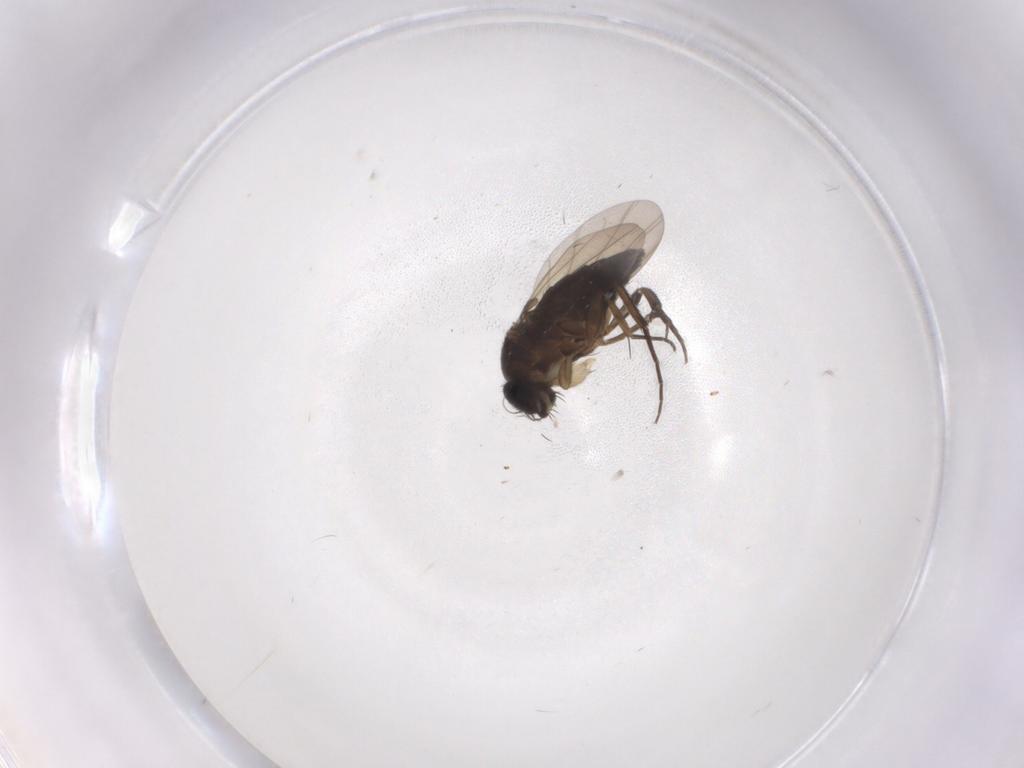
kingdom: Animalia
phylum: Arthropoda
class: Insecta
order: Diptera
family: Phoridae
